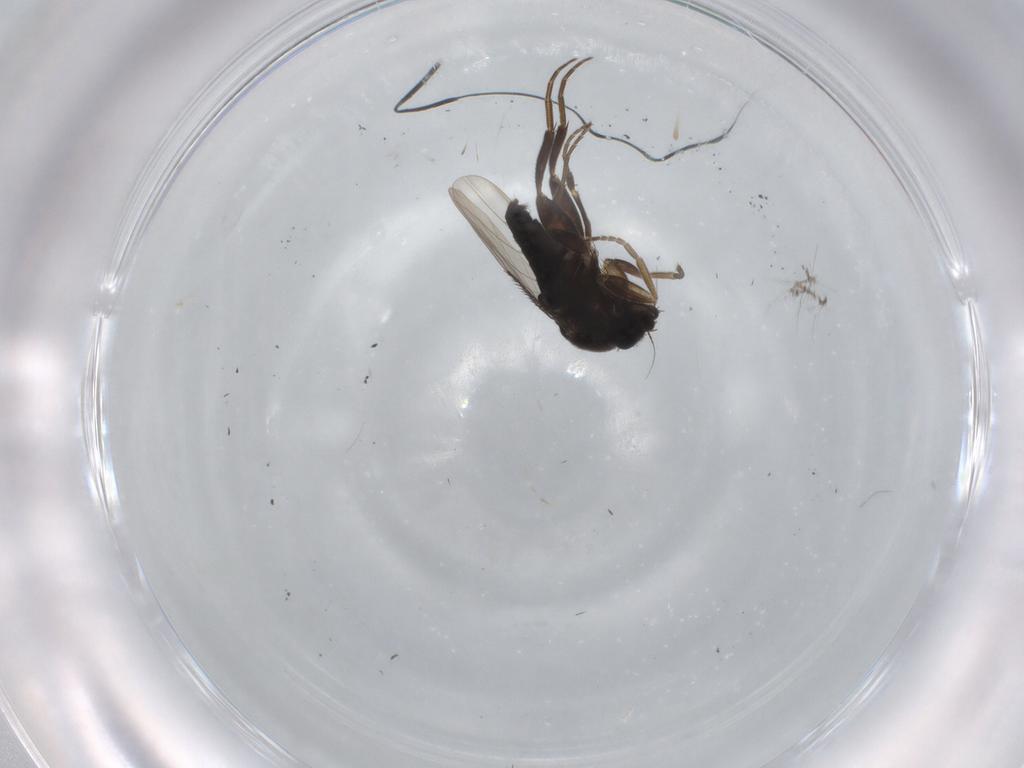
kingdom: Animalia
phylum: Arthropoda
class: Insecta
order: Diptera
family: Phoridae
